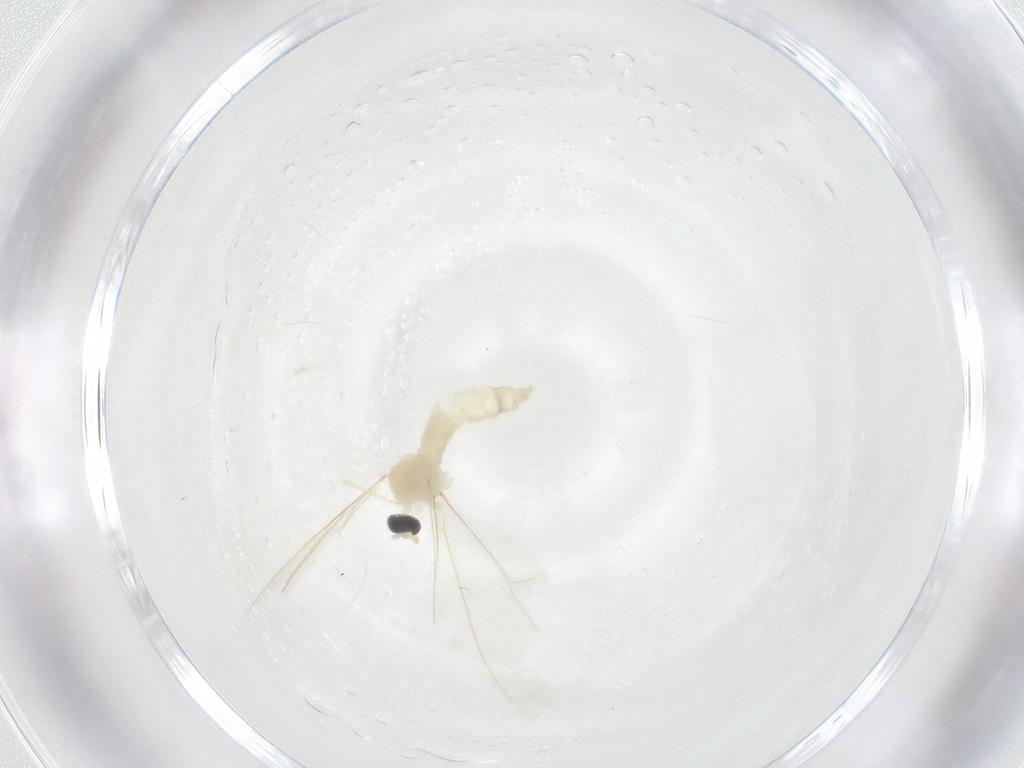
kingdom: Animalia
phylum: Arthropoda
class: Insecta
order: Diptera
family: Cecidomyiidae
